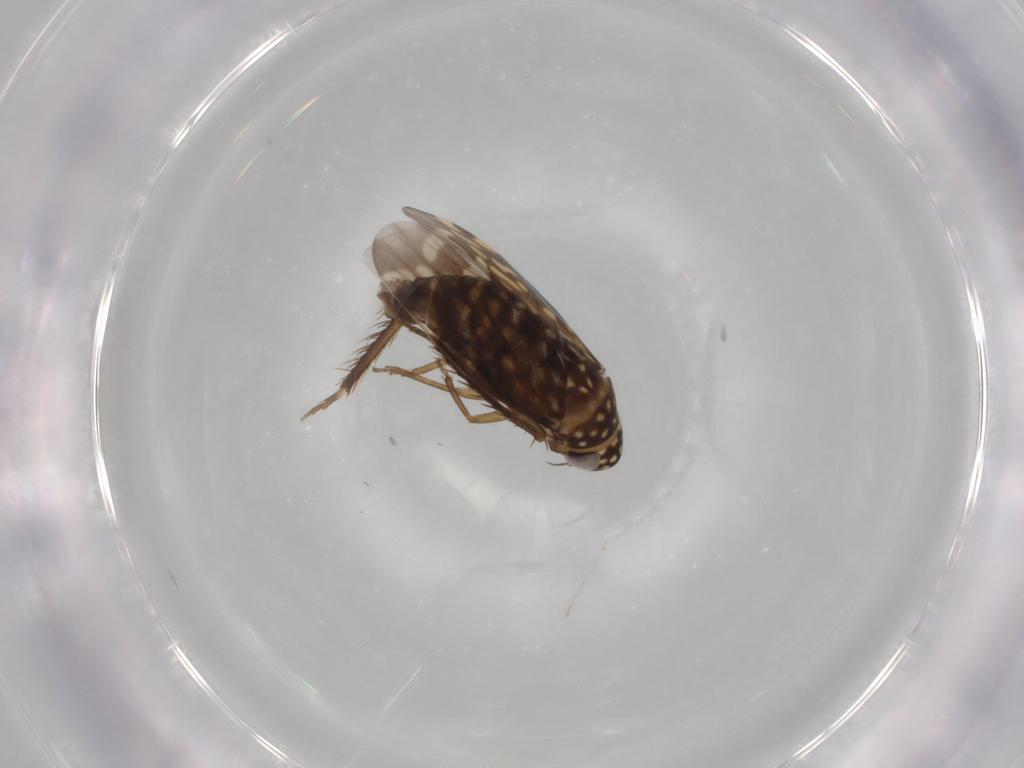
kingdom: Animalia
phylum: Arthropoda
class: Insecta
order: Hemiptera
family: Cicadellidae
